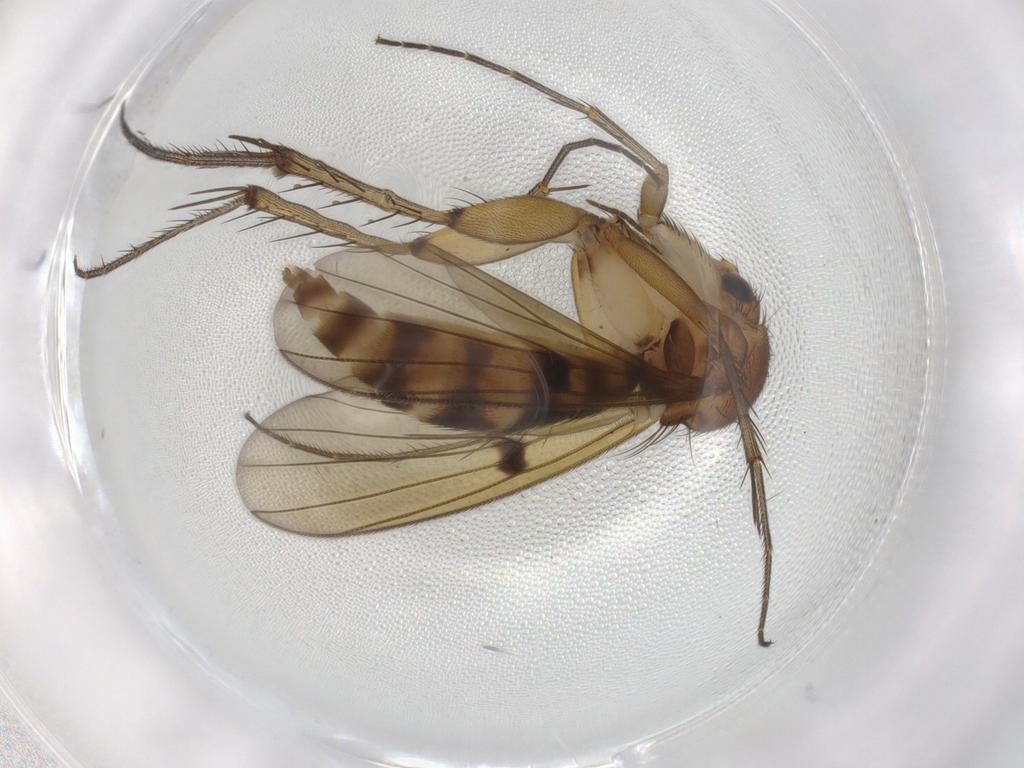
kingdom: Animalia
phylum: Arthropoda
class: Insecta
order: Diptera
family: Mycetophilidae
